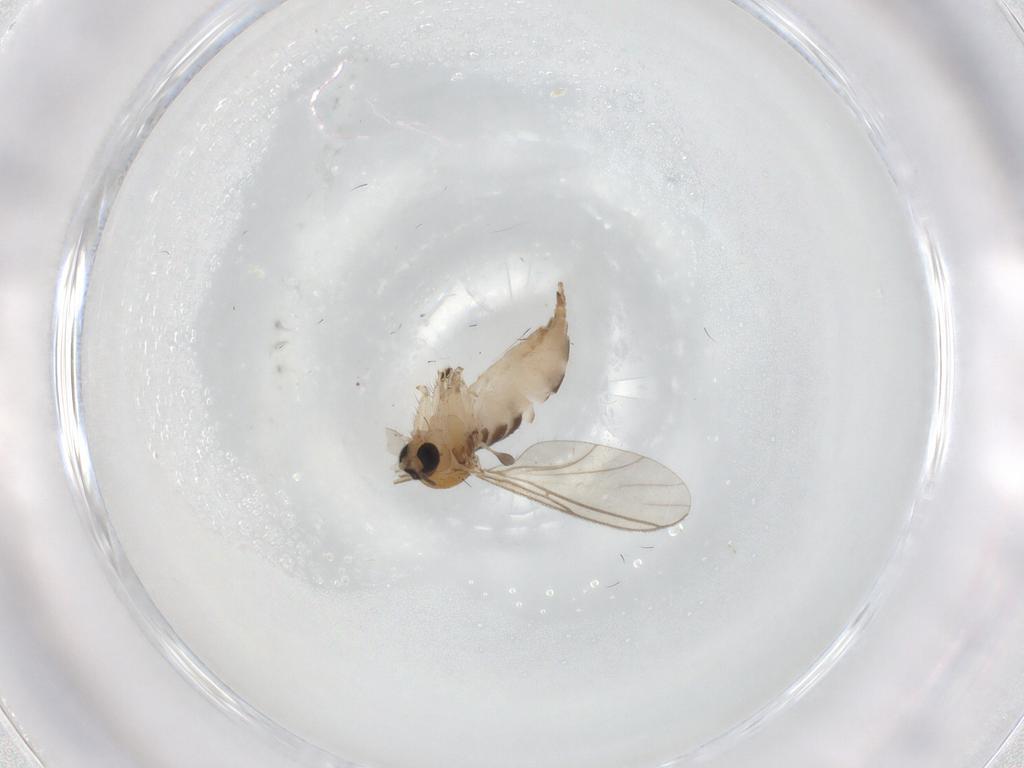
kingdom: Animalia
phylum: Arthropoda
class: Insecta
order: Diptera
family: Cecidomyiidae
